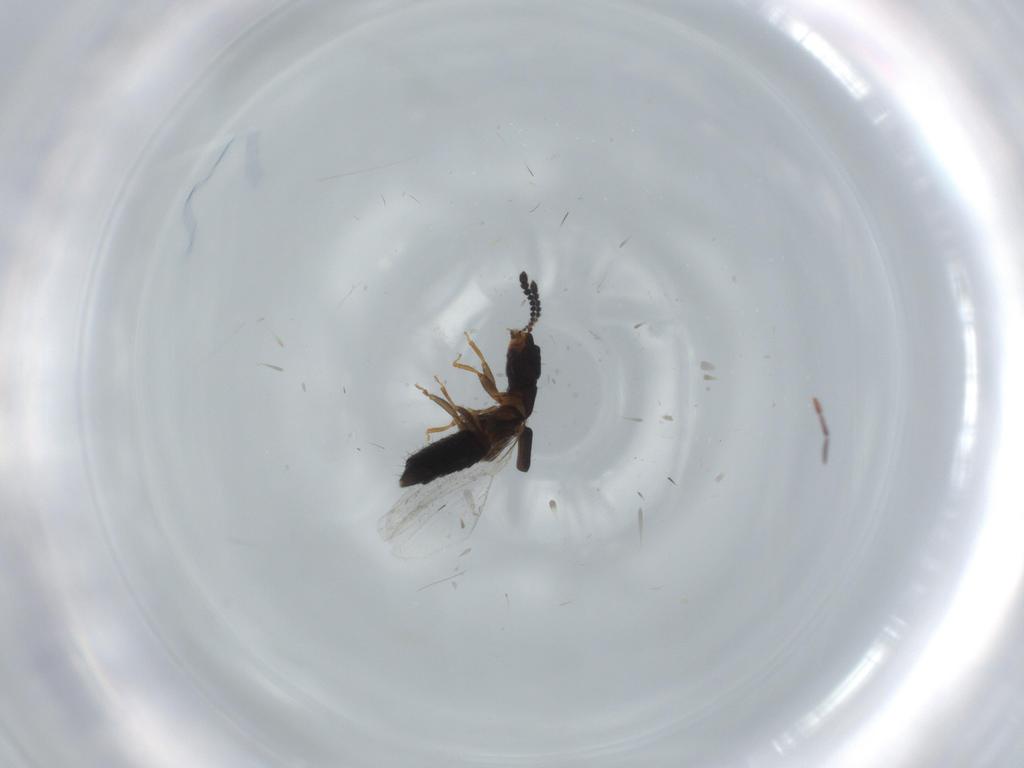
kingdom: Animalia
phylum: Arthropoda
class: Insecta
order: Coleoptera
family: Staphylinidae
